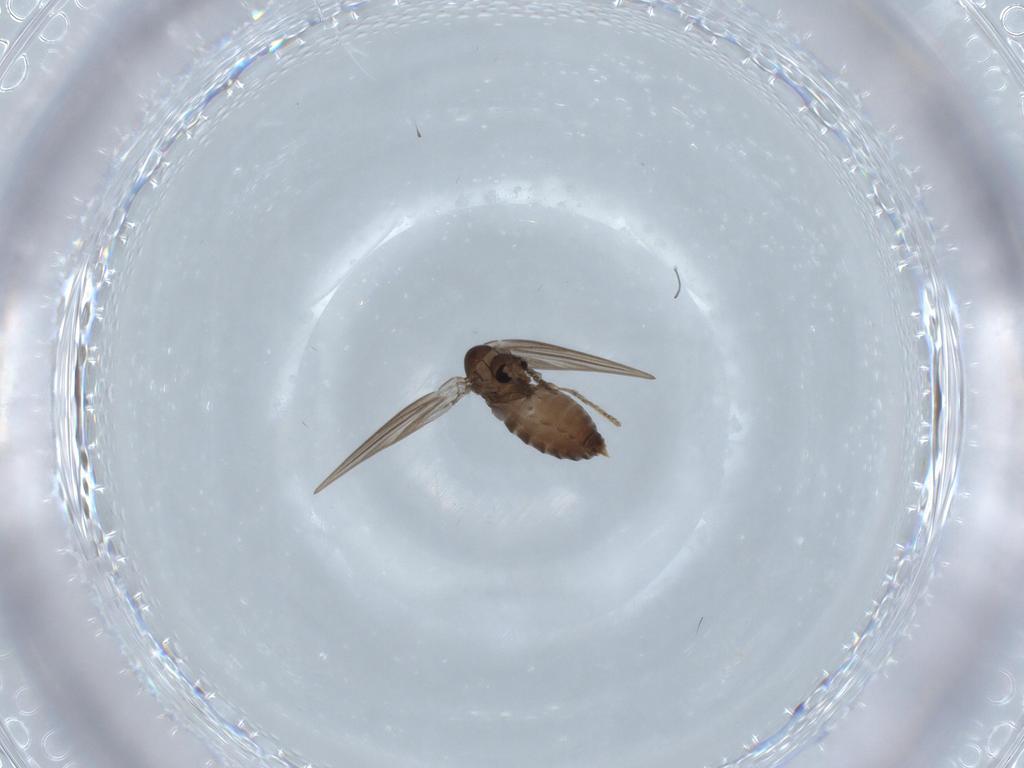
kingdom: Animalia
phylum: Arthropoda
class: Insecta
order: Diptera
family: Psychodidae
